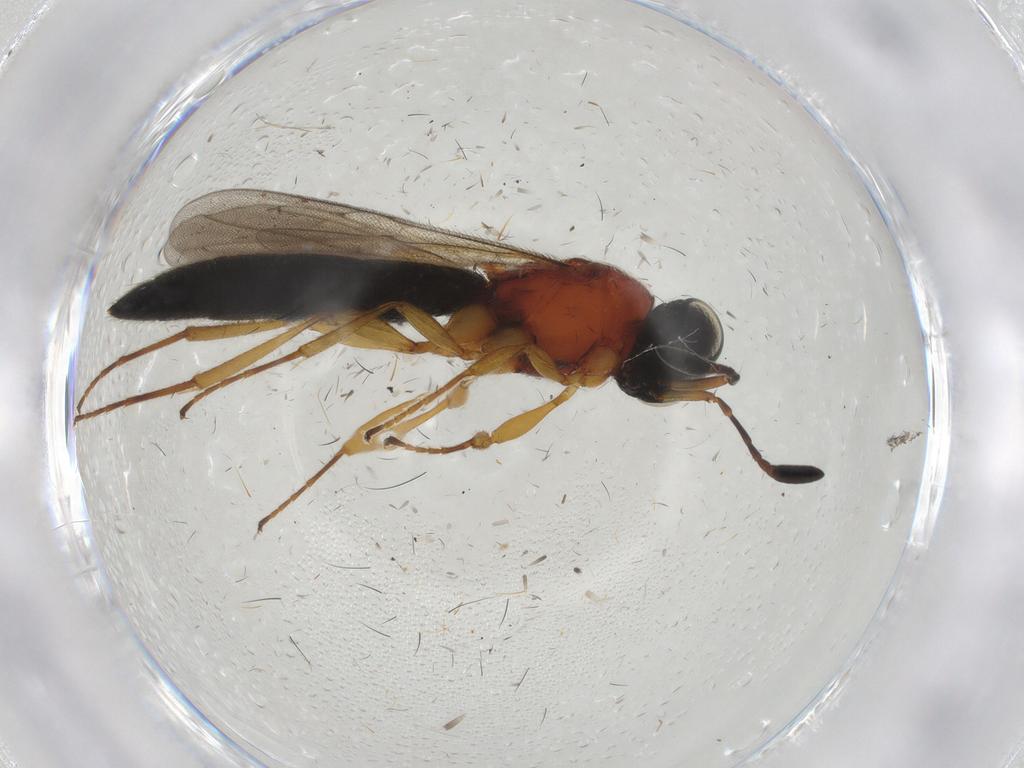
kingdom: Animalia
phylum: Arthropoda
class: Insecta
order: Hymenoptera
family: Scelionidae
